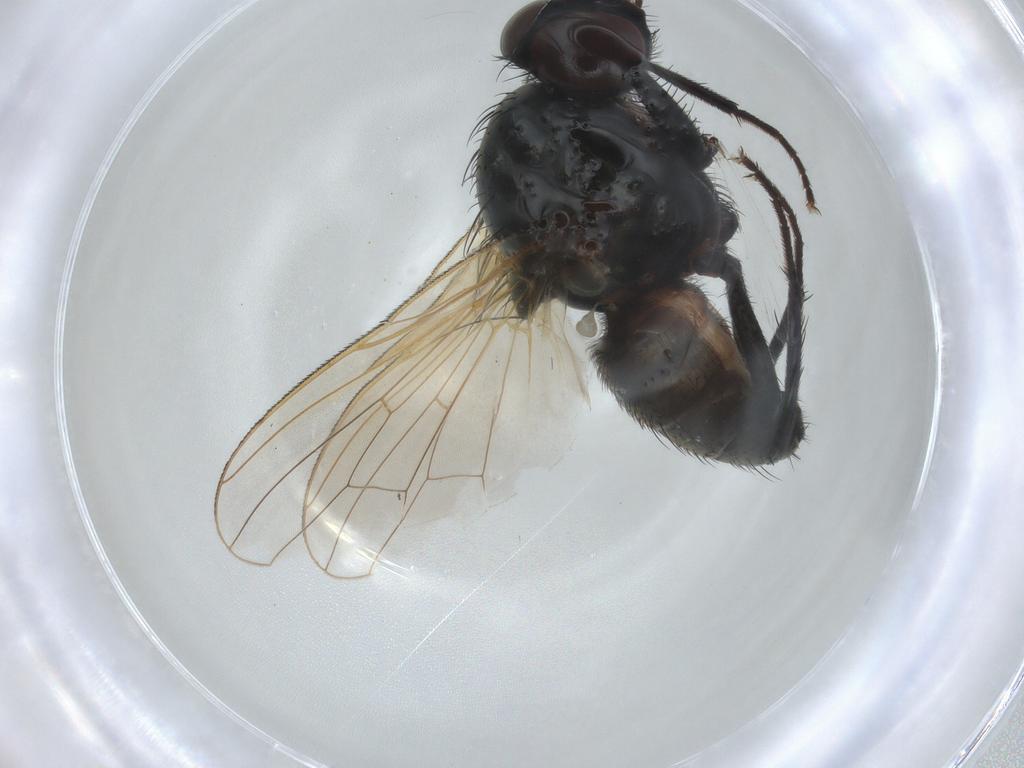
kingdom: Animalia
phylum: Arthropoda
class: Insecta
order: Diptera
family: Anthomyiidae
